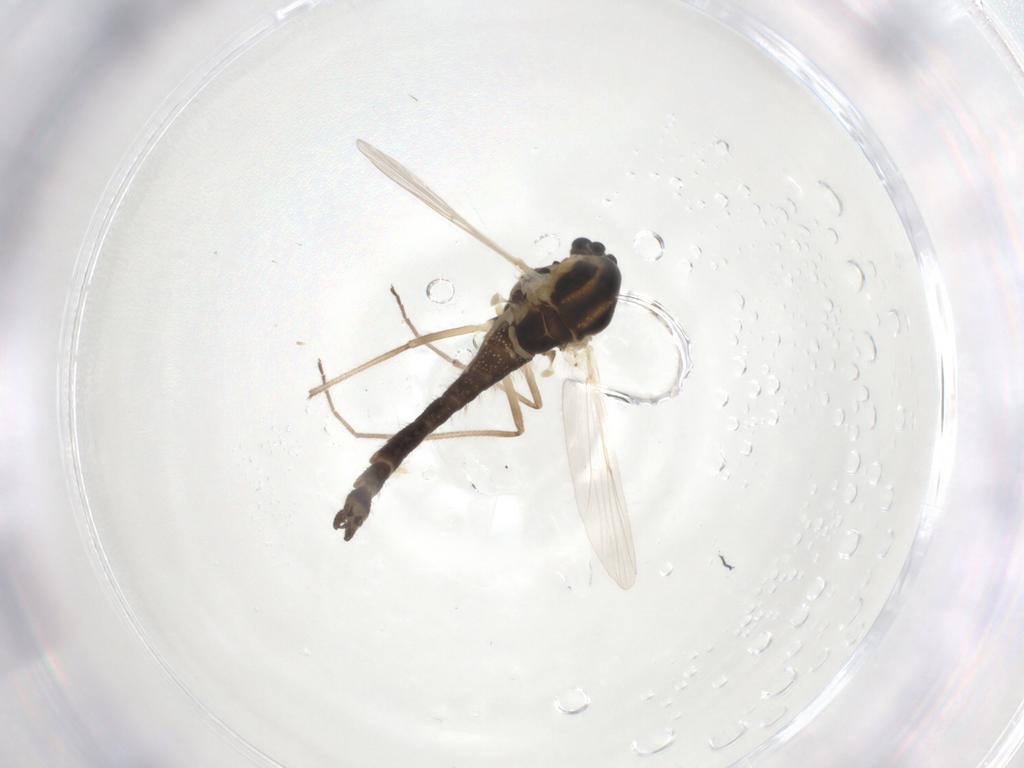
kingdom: Animalia
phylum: Arthropoda
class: Insecta
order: Diptera
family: Chironomidae
